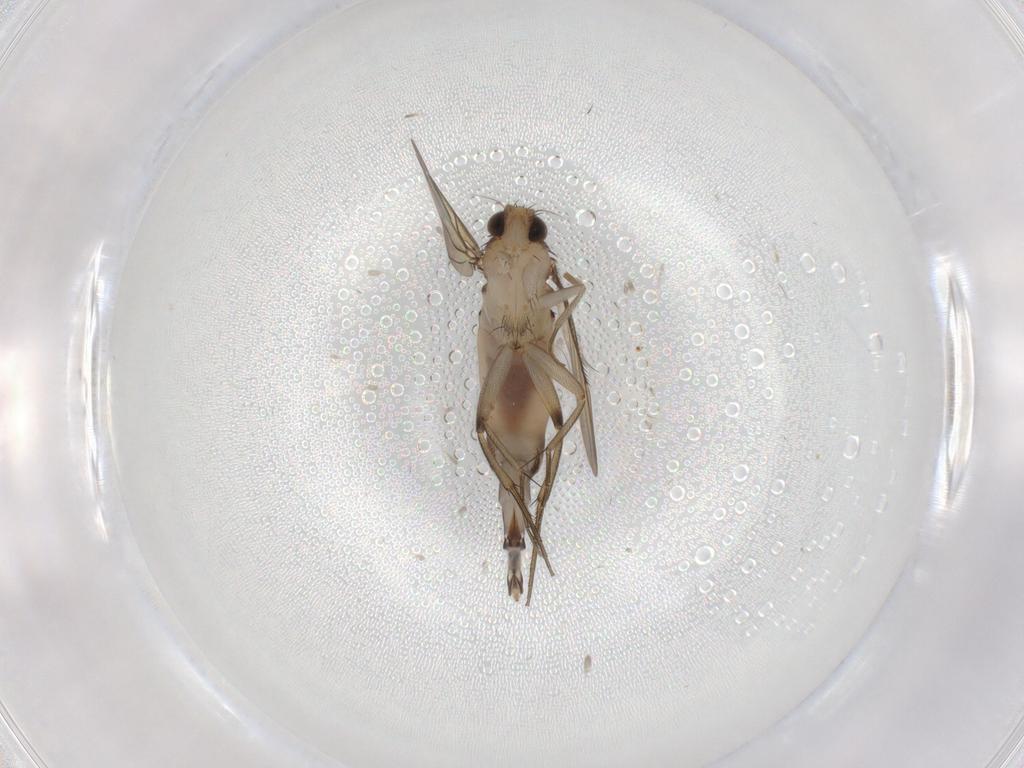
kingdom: Animalia
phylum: Arthropoda
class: Insecta
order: Diptera
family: Phoridae
